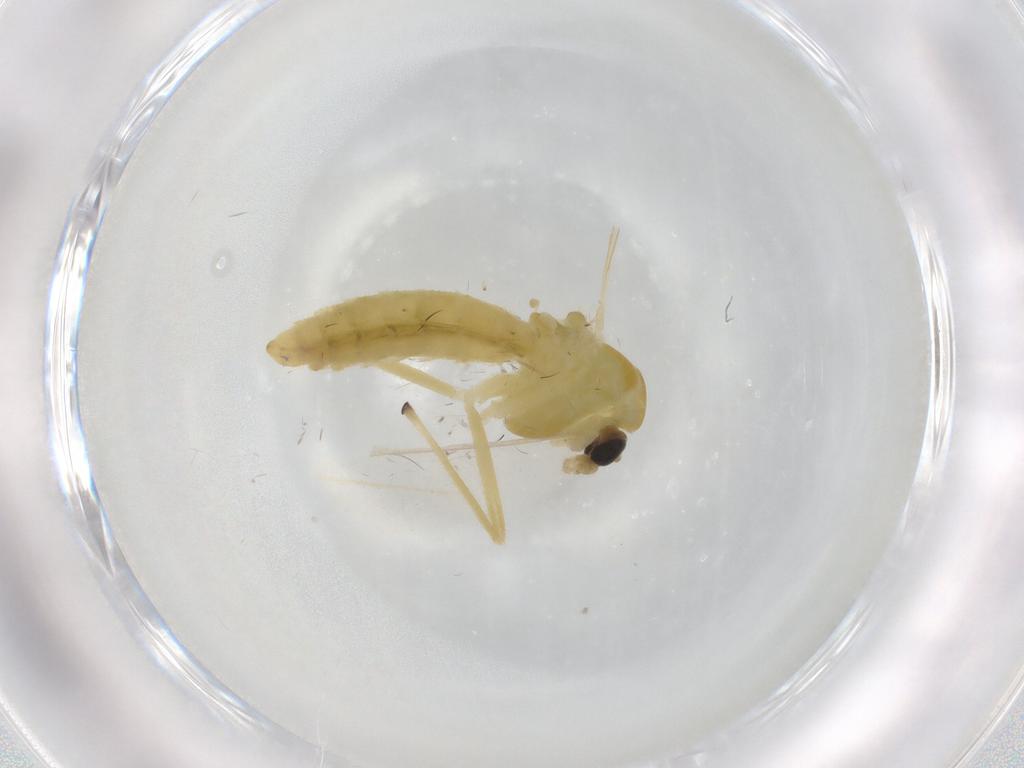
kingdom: Animalia
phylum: Arthropoda
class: Insecta
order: Diptera
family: Chironomidae
